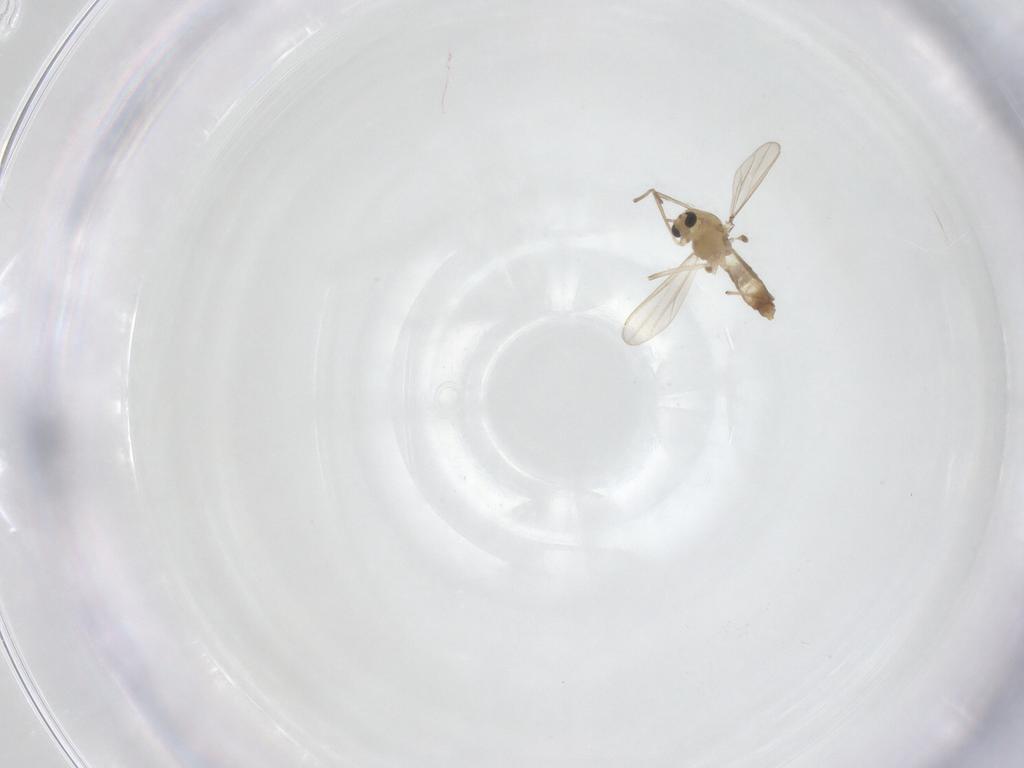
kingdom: Animalia
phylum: Arthropoda
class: Insecta
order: Diptera
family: Chironomidae
